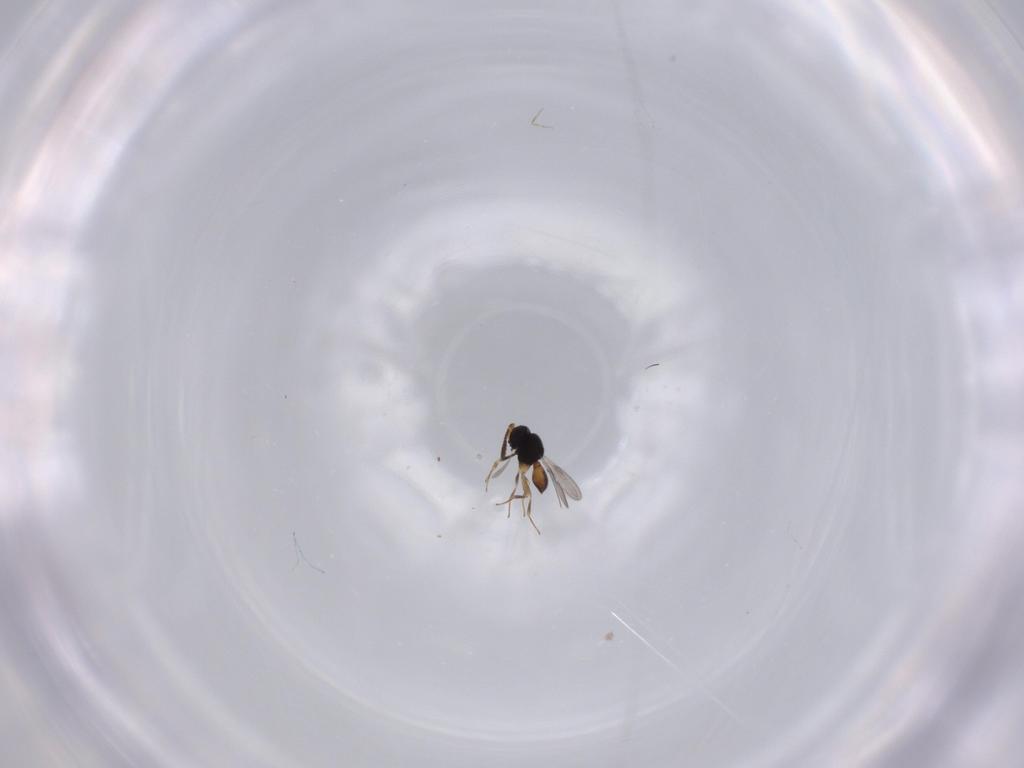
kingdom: Animalia
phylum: Arthropoda
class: Insecta
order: Hymenoptera
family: Scelionidae
